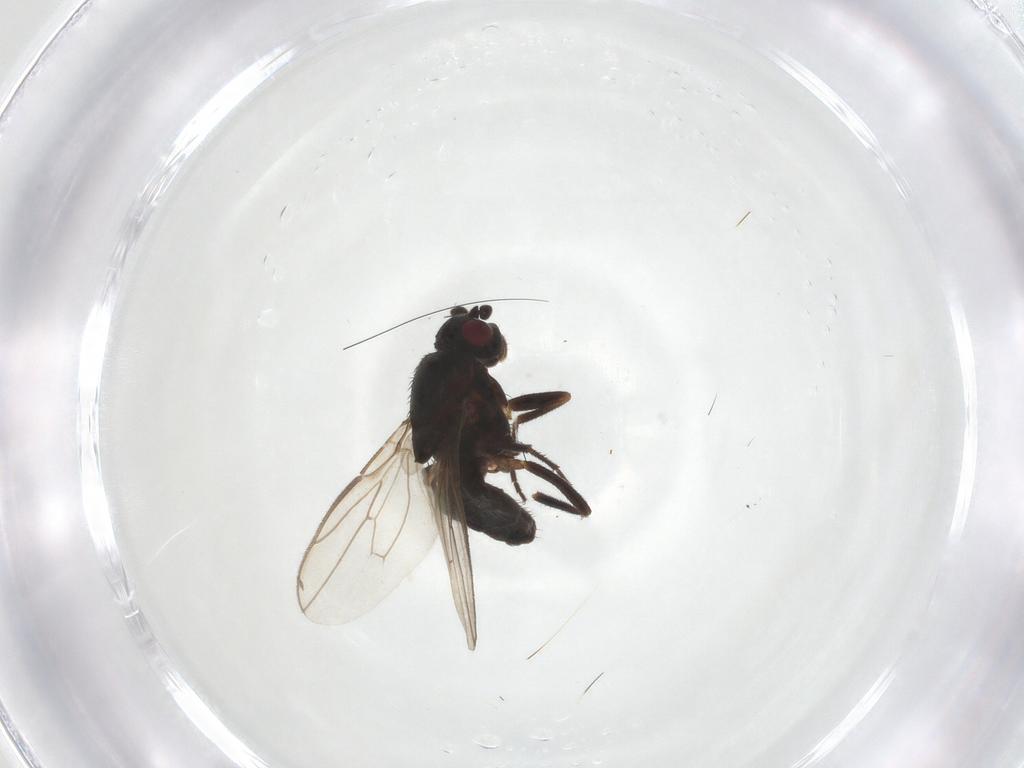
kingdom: Animalia
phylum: Arthropoda
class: Insecta
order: Diptera
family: Sphaeroceridae
